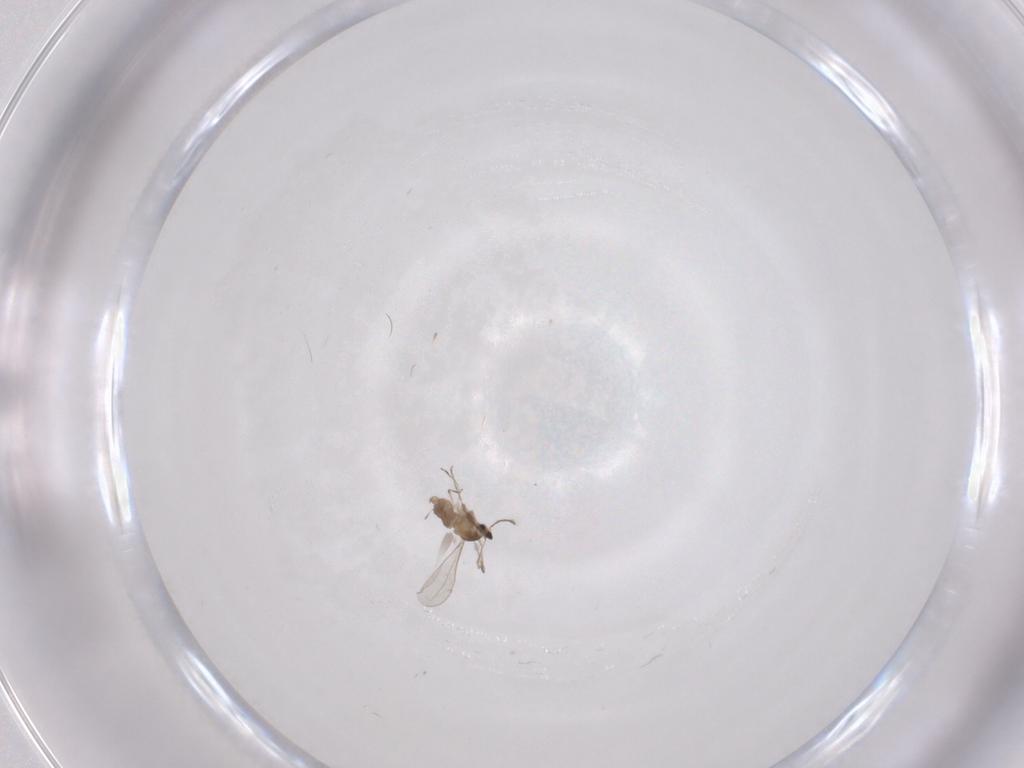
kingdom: Animalia
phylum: Arthropoda
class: Insecta
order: Diptera
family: Cecidomyiidae
